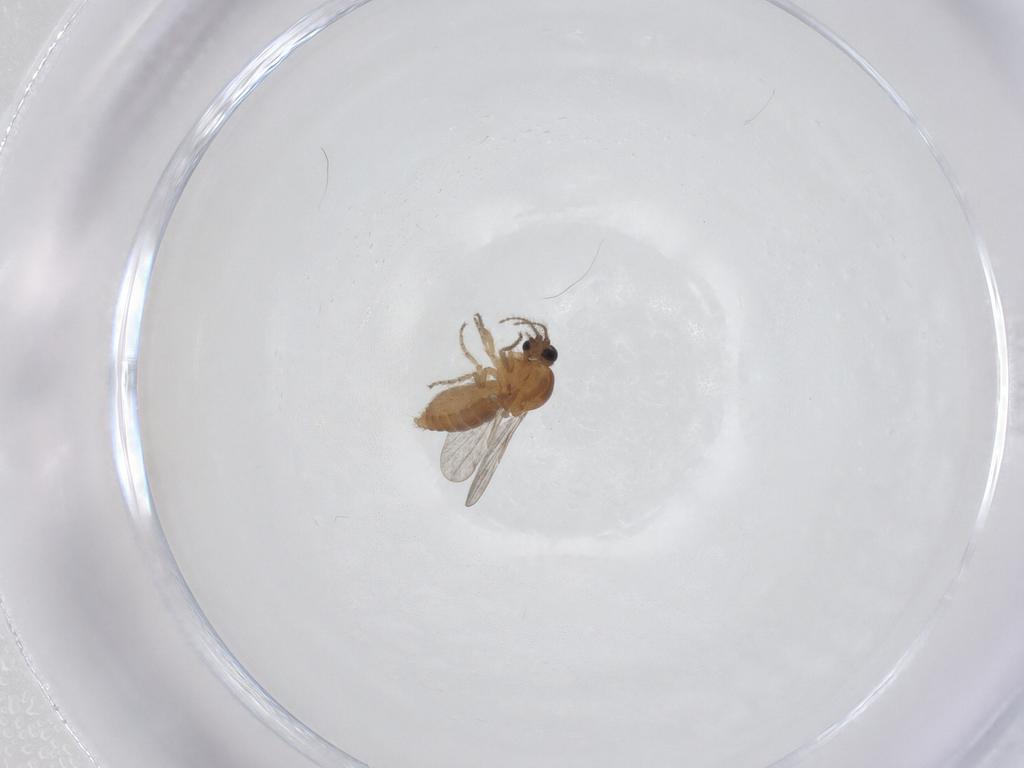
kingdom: Animalia
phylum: Arthropoda
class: Insecta
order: Diptera
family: Ceratopogonidae
